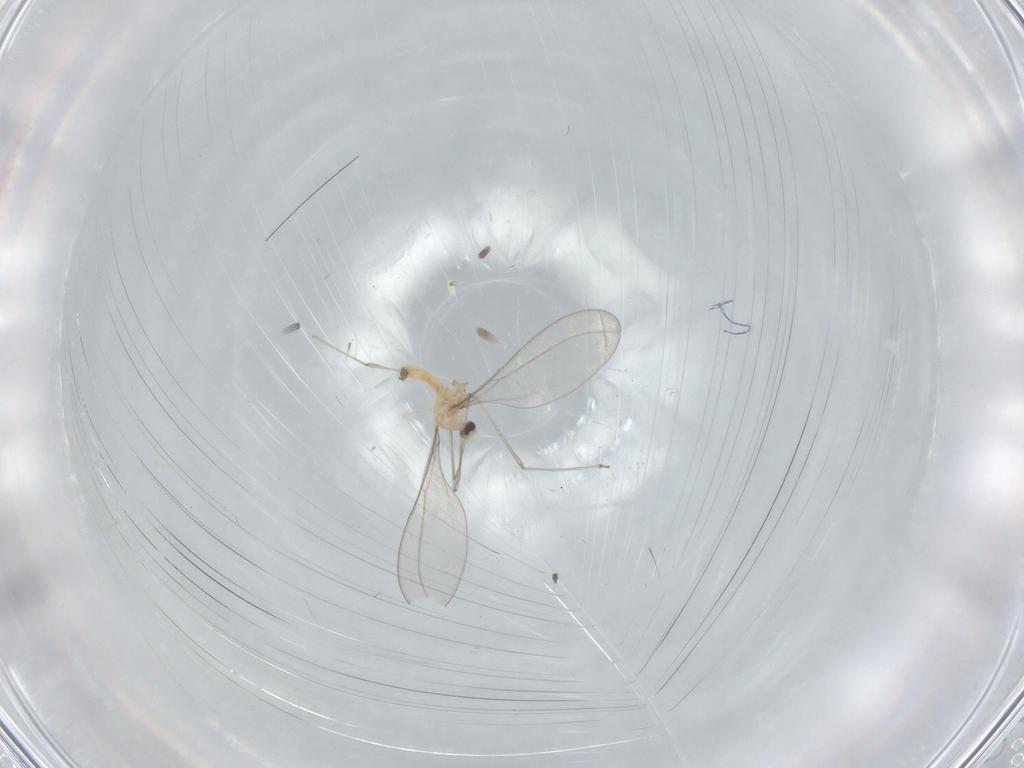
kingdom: Animalia
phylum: Arthropoda
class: Insecta
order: Diptera
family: Cecidomyiidae
